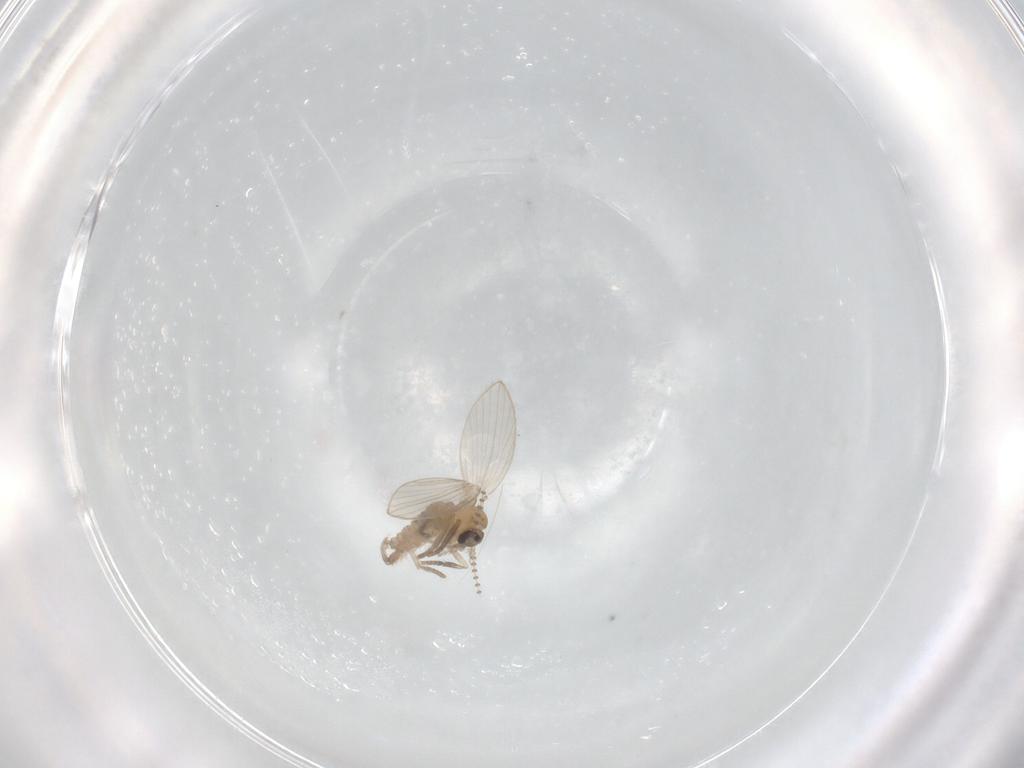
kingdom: Animalia
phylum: Arthropoda
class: Insecta
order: Diptera
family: Psychodidae
